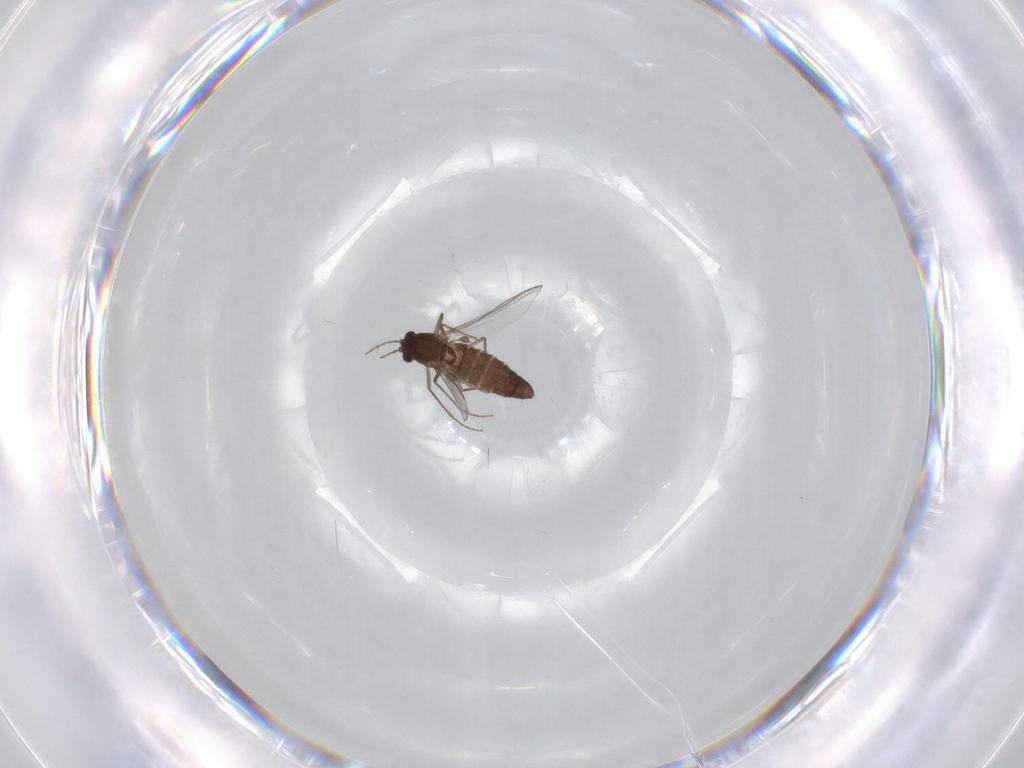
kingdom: Animalia
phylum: Arthropoda
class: Insecta
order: Diptera
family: Chironomidae
